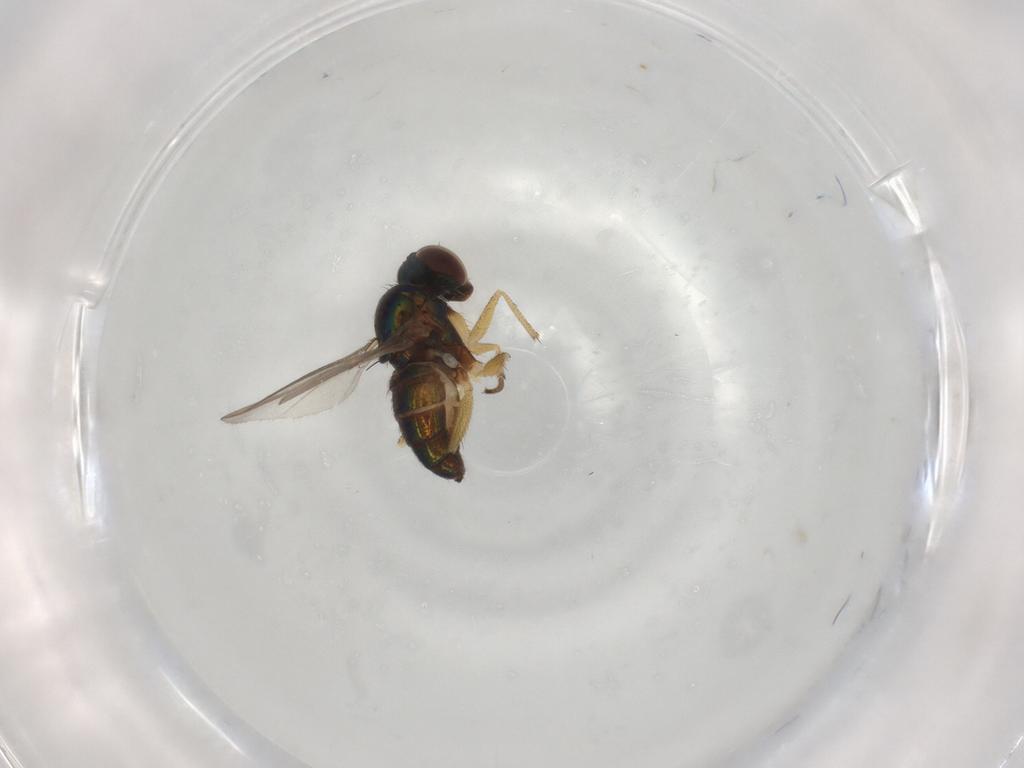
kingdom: Animalia
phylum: Arthropoda
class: Insecta
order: Diptera
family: Dolichopodidae
